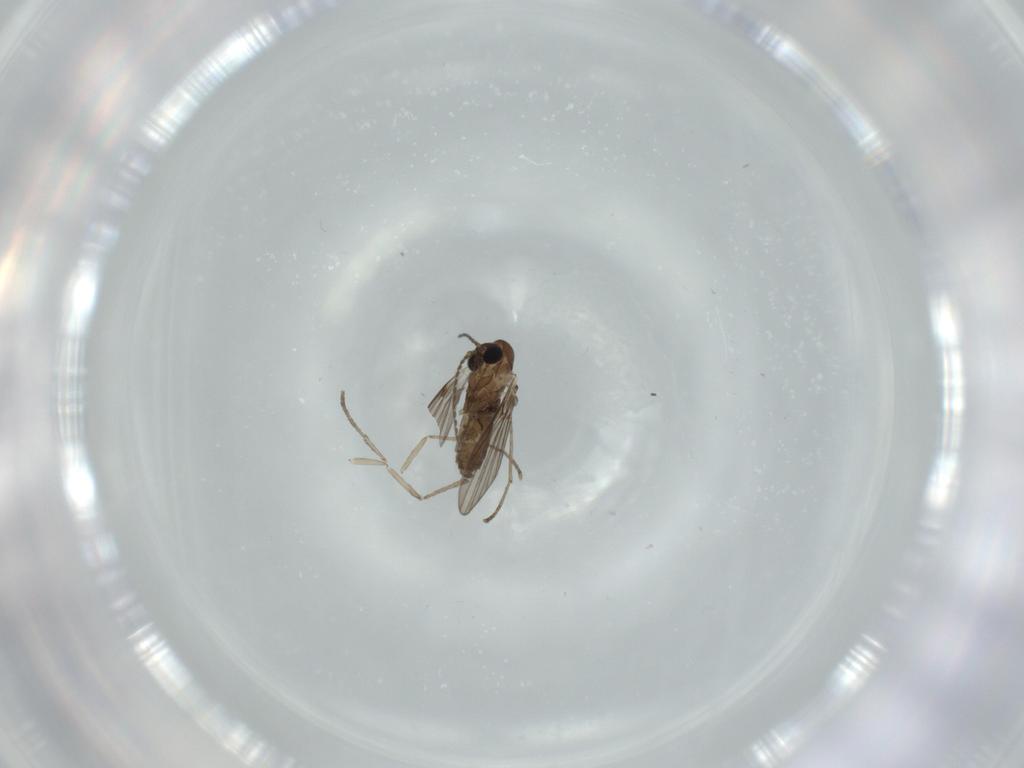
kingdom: Animalia
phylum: Arthropoda
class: Insecta
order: Diptera
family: Psychodidae
